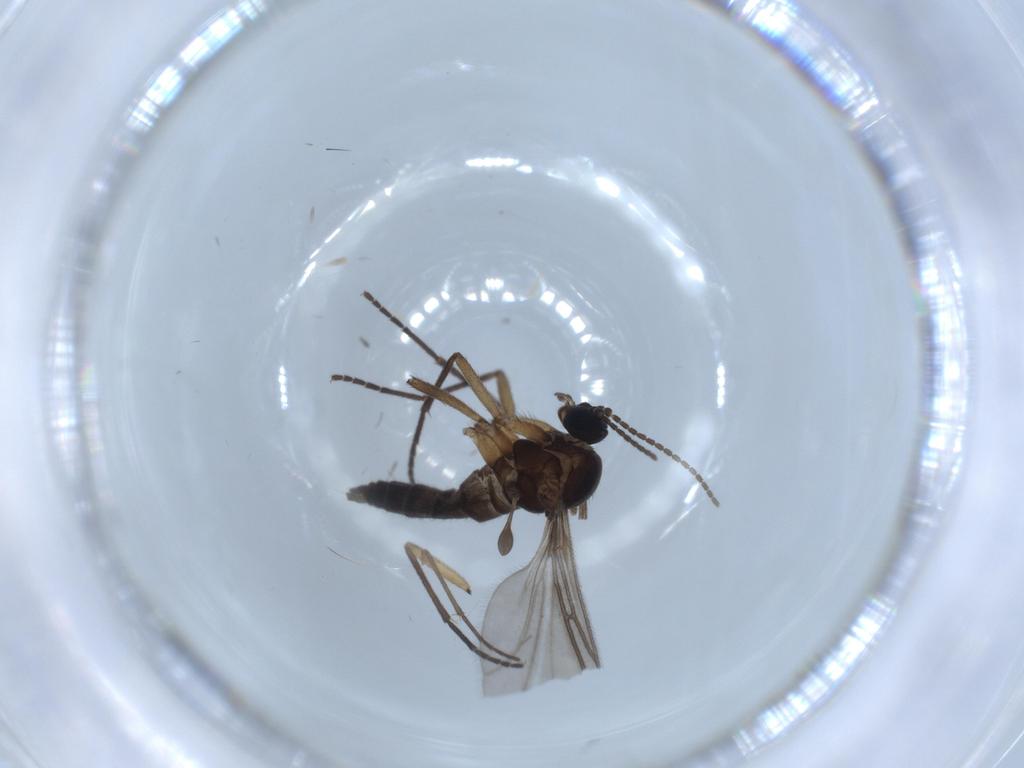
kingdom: Animalia
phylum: Arthropoda
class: Insecta
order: Diptera
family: Sciaridae
